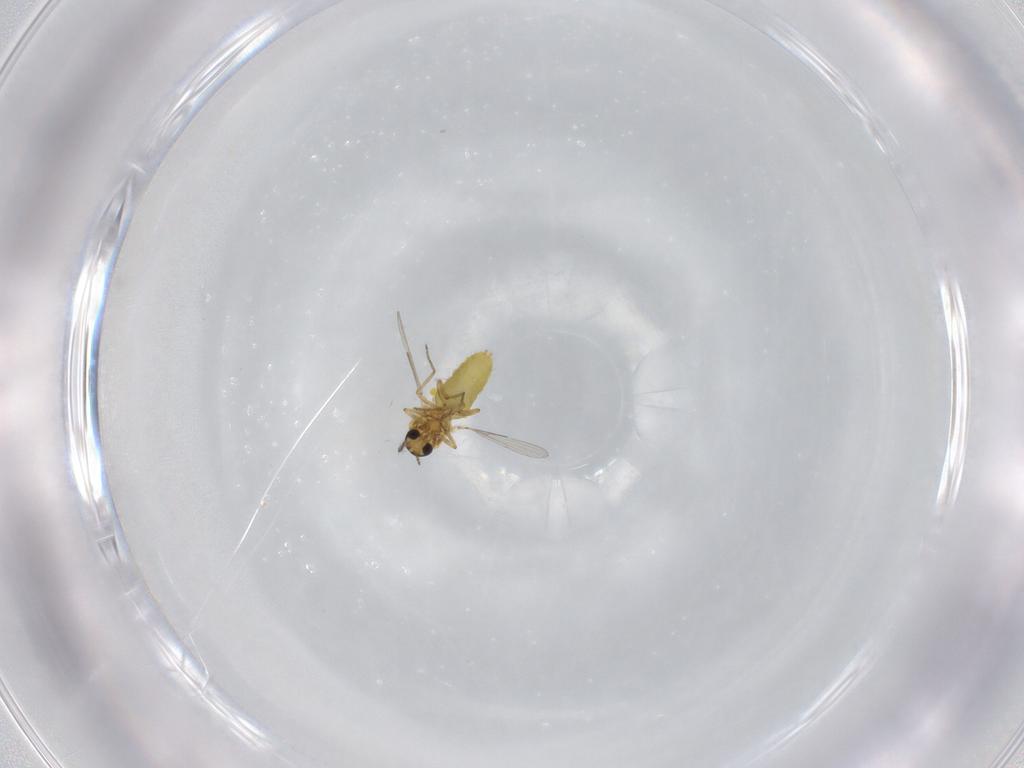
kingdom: Animalia
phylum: Arthropoda
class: Insecta
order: Diptera
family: Ceratopogonidae
